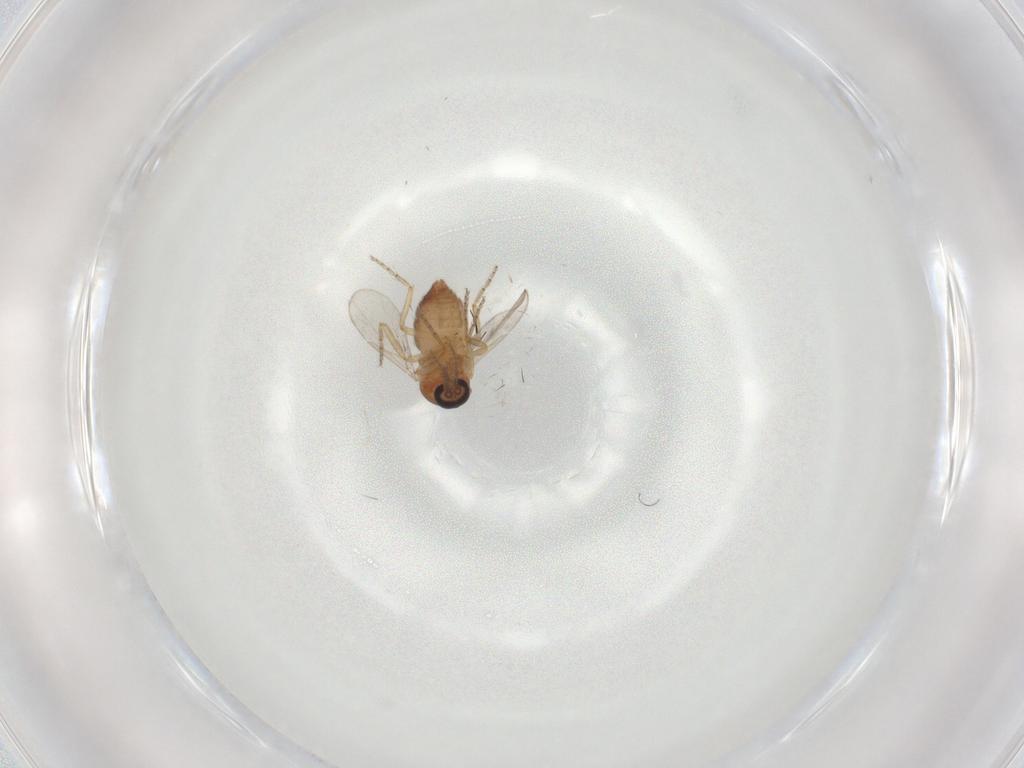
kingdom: Animalia
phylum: Arthropoda
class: Insecta
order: Diptera
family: Ceratopogonidae
